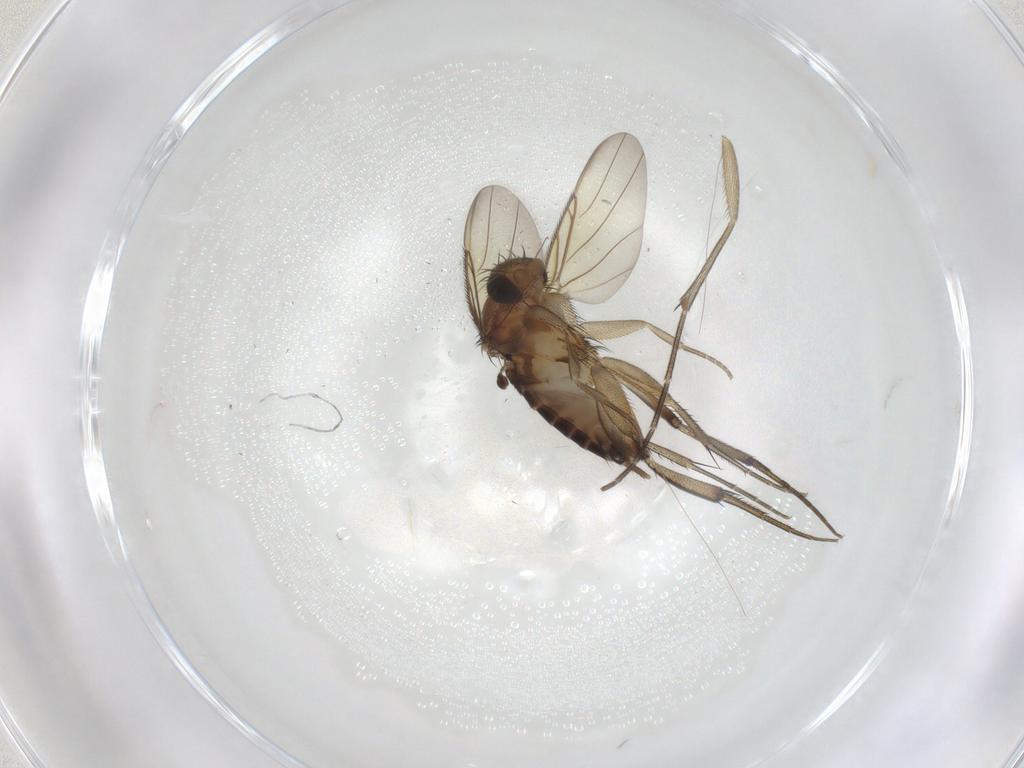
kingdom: Animalia
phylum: Arthropoda
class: Insecta
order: Diptera
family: Phoridae
